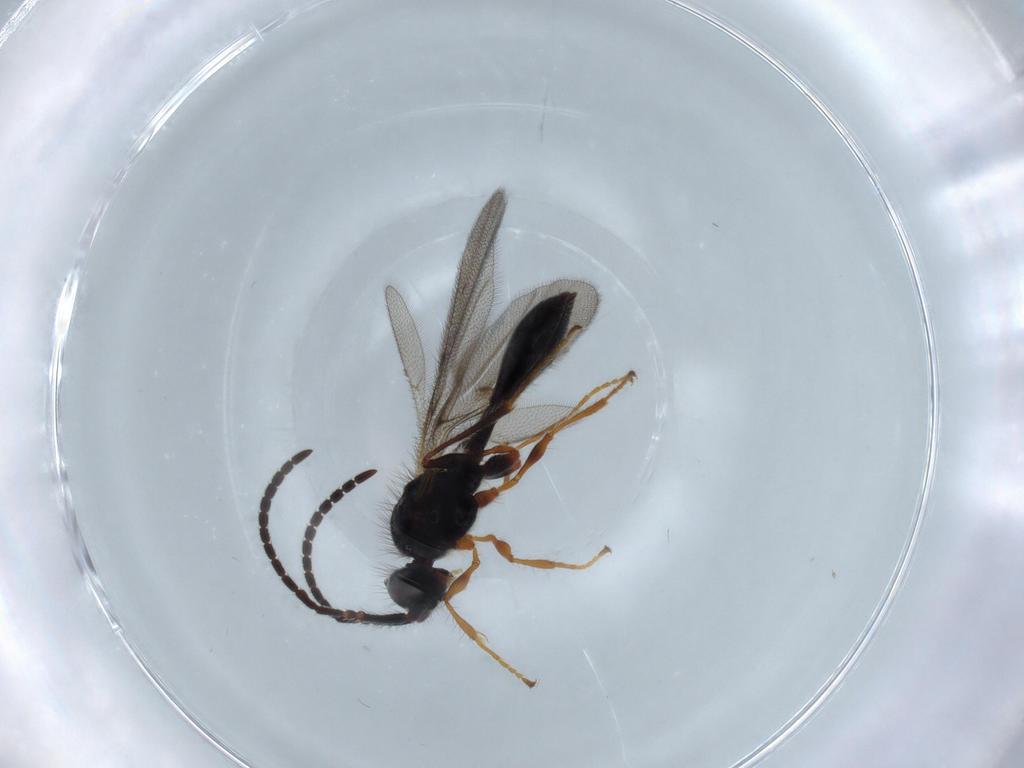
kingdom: Animalia
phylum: Arthropoda
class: Insecta
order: Hymenoptera
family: Diapriidae
